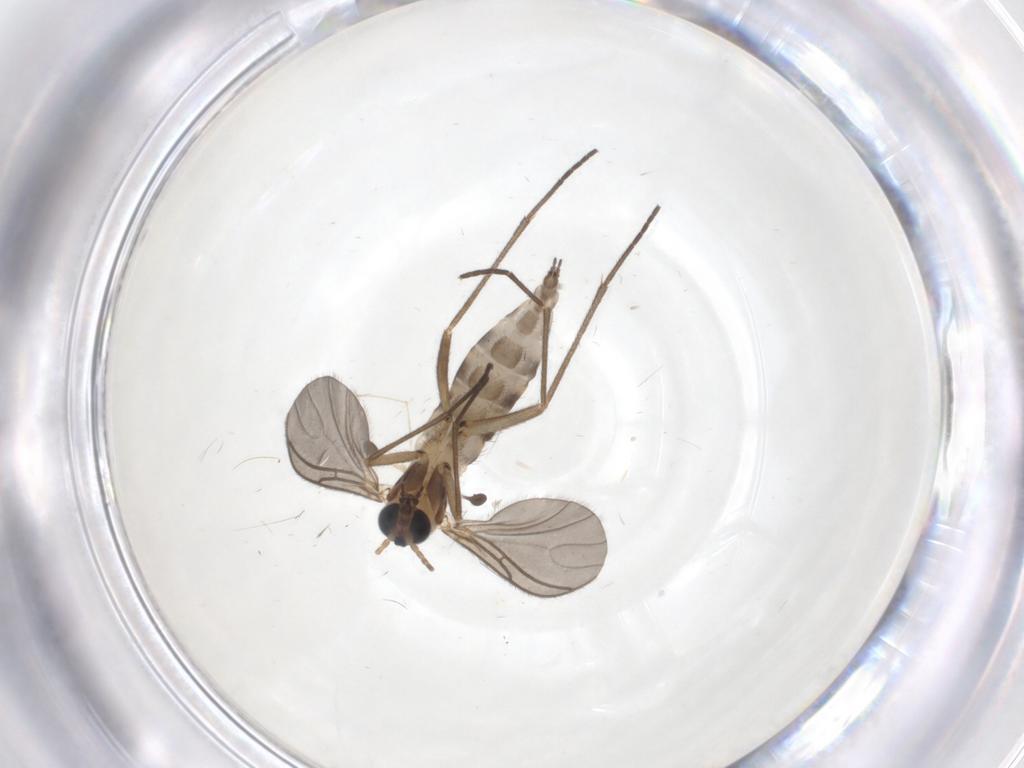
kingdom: Animalia
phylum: Arthropoda
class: Insecta
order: Diptera
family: Sciaridae
